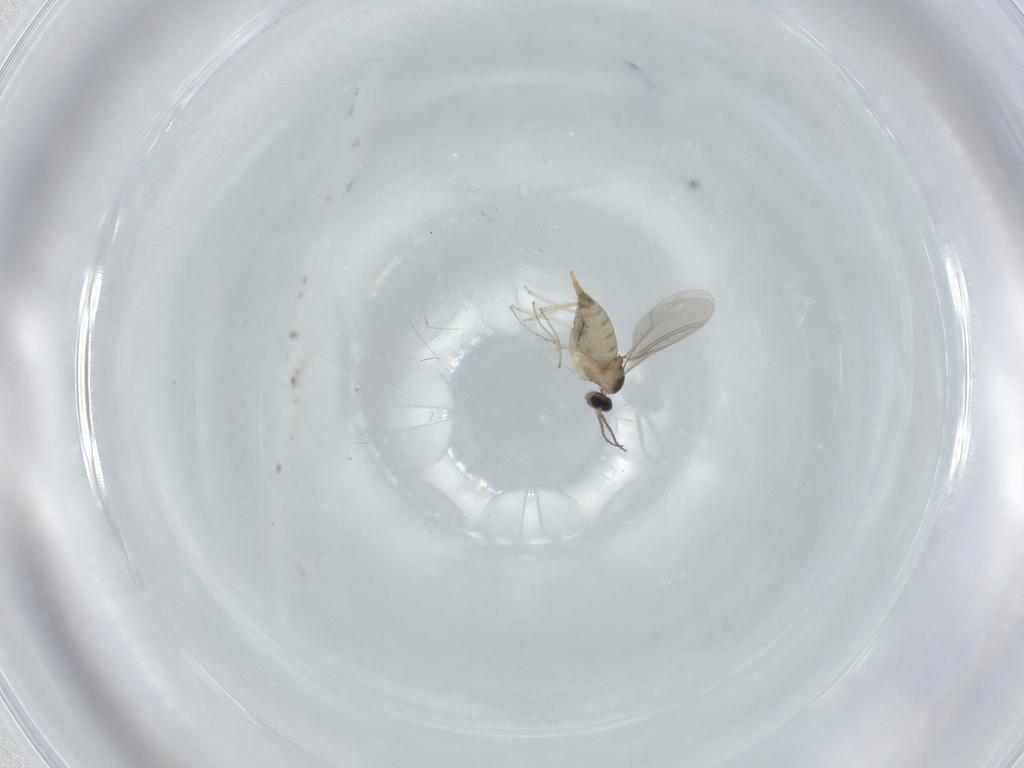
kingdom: Animalia
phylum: Arthropoda
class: Insecta
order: Diptera
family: Cecidomyiidae
